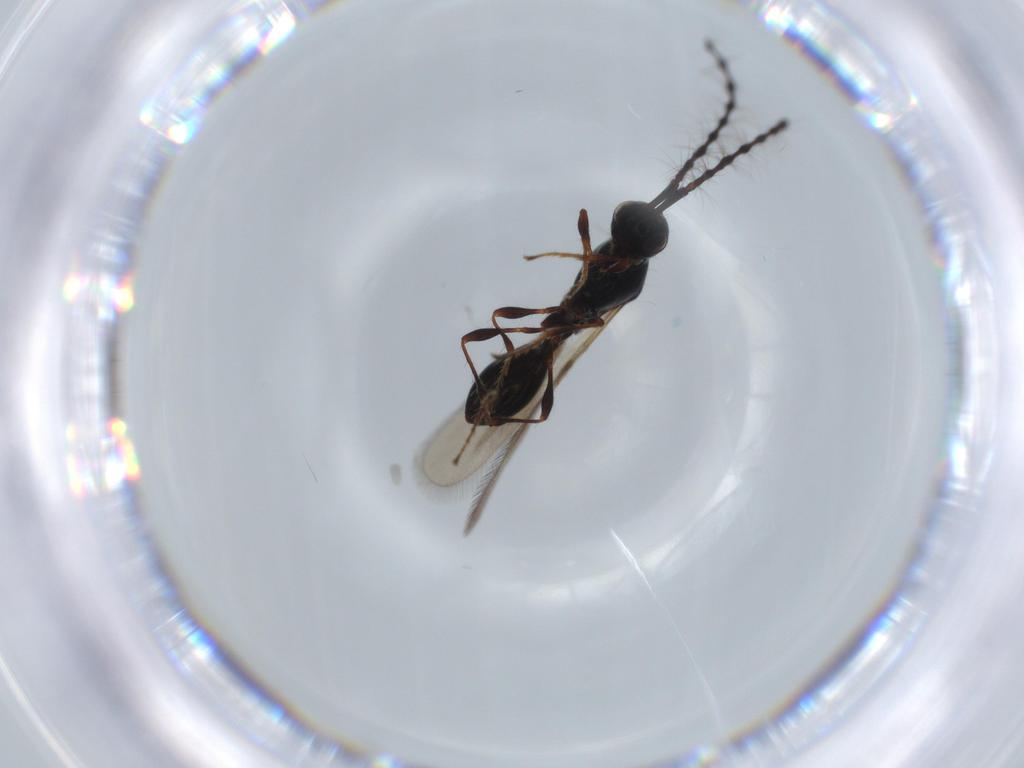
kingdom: Animalia
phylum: Arthropoda
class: Insecta
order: Hymenoptera
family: Diapriidae
